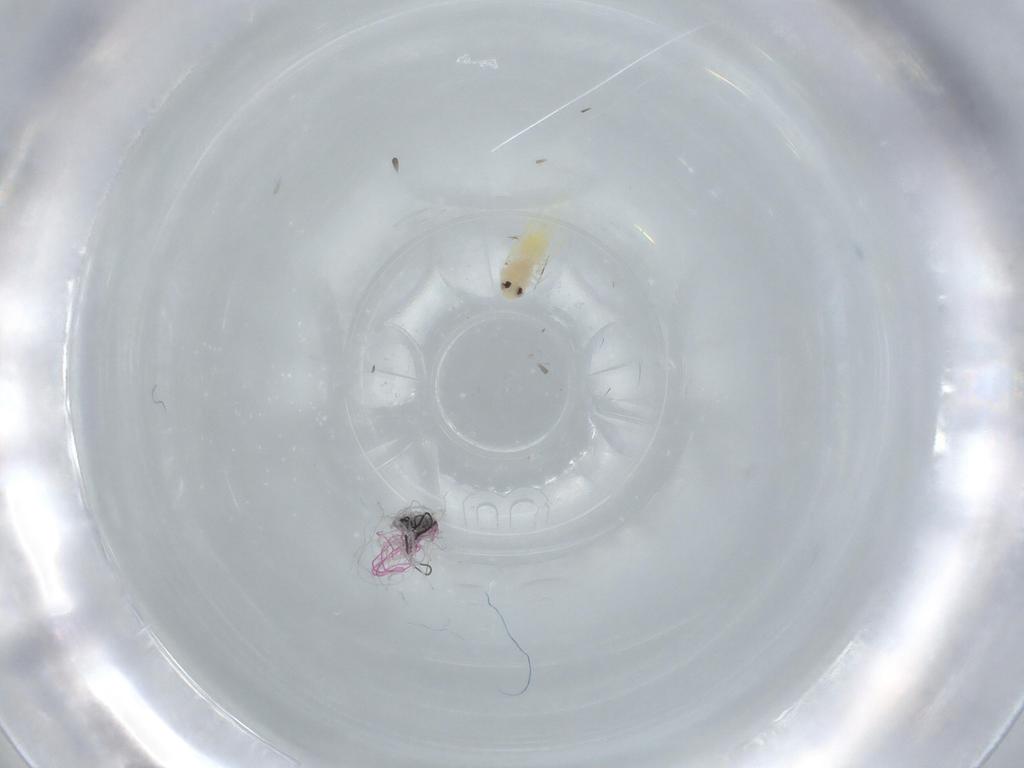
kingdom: Animalia
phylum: Arthropoda
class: Insecta
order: Hemiptera
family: Aleyrodidae
